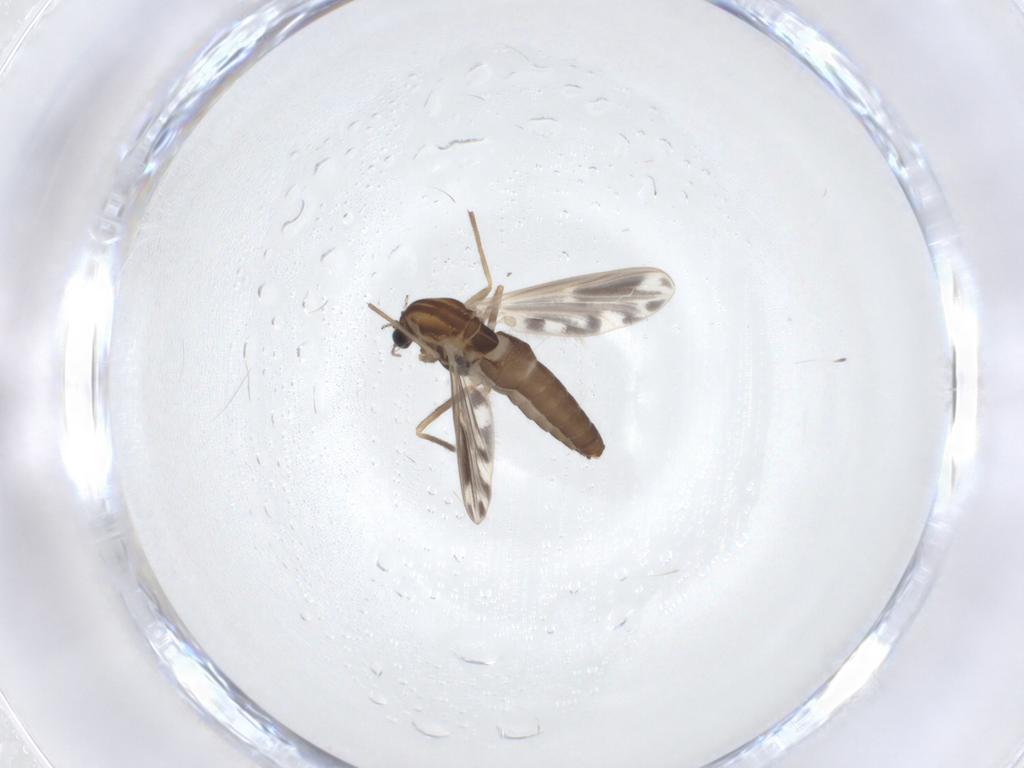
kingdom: Animalia
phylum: Arthropoda
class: Insecta
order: Diptera
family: Chironomidae
